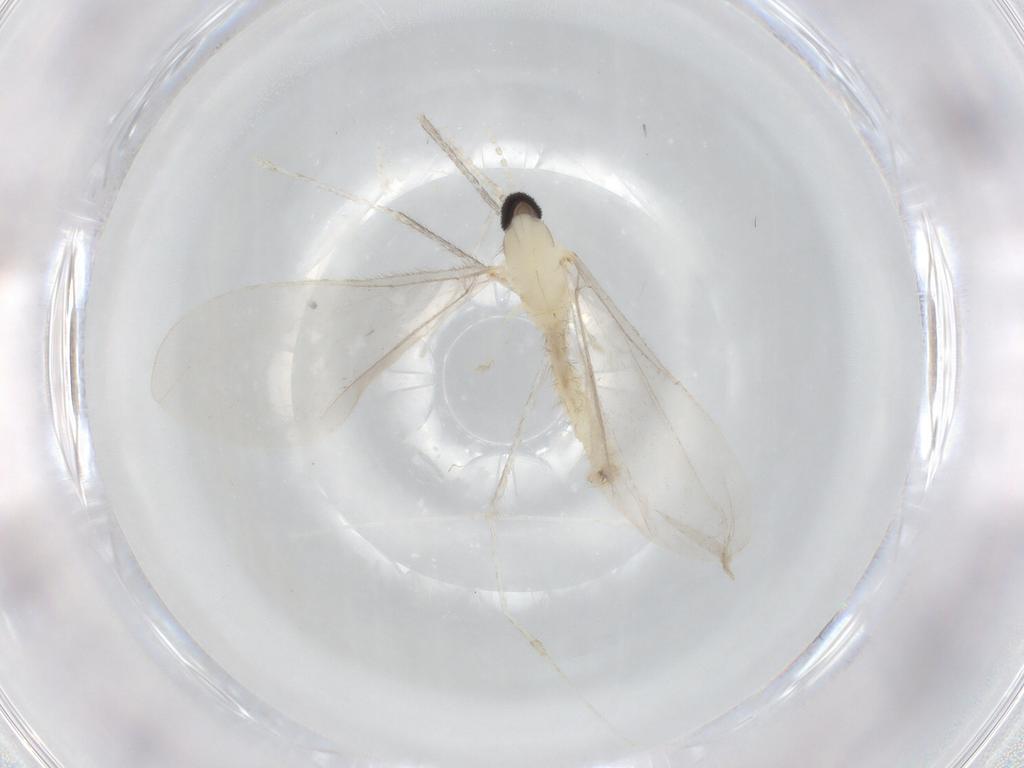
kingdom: Animalia
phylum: Arthropoda
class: Insecta
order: Diptera
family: Cecidomyiidae
